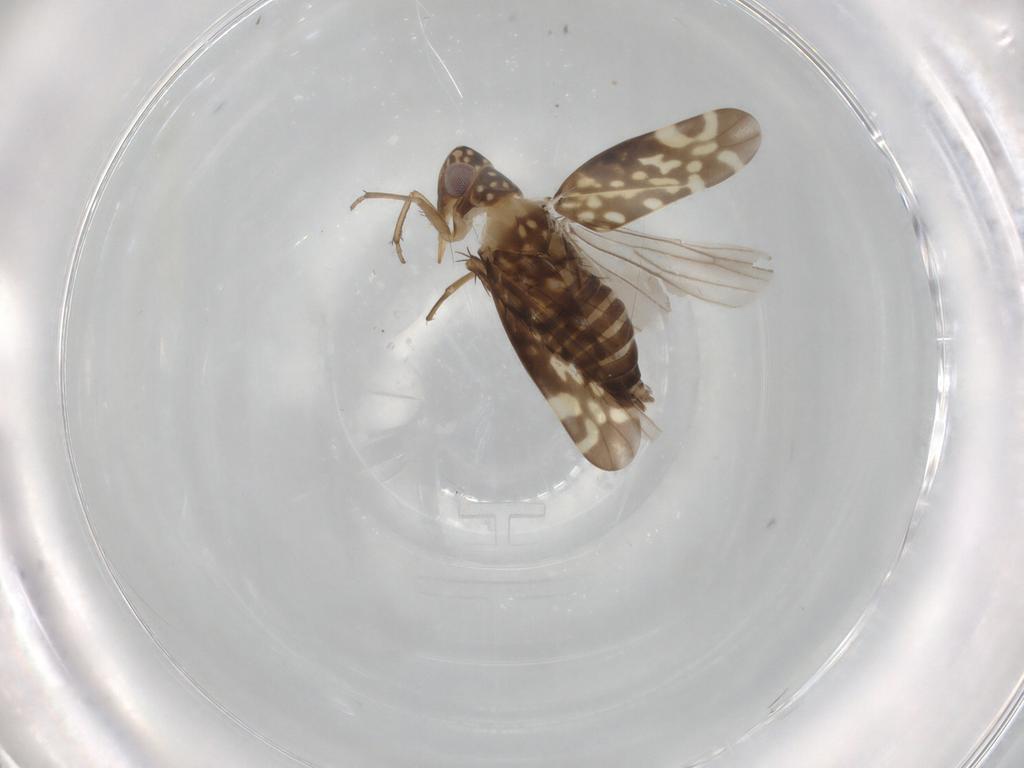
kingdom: Animalia
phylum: Arthropoda
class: Insecta
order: Hemiptera
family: Cicadellidae
